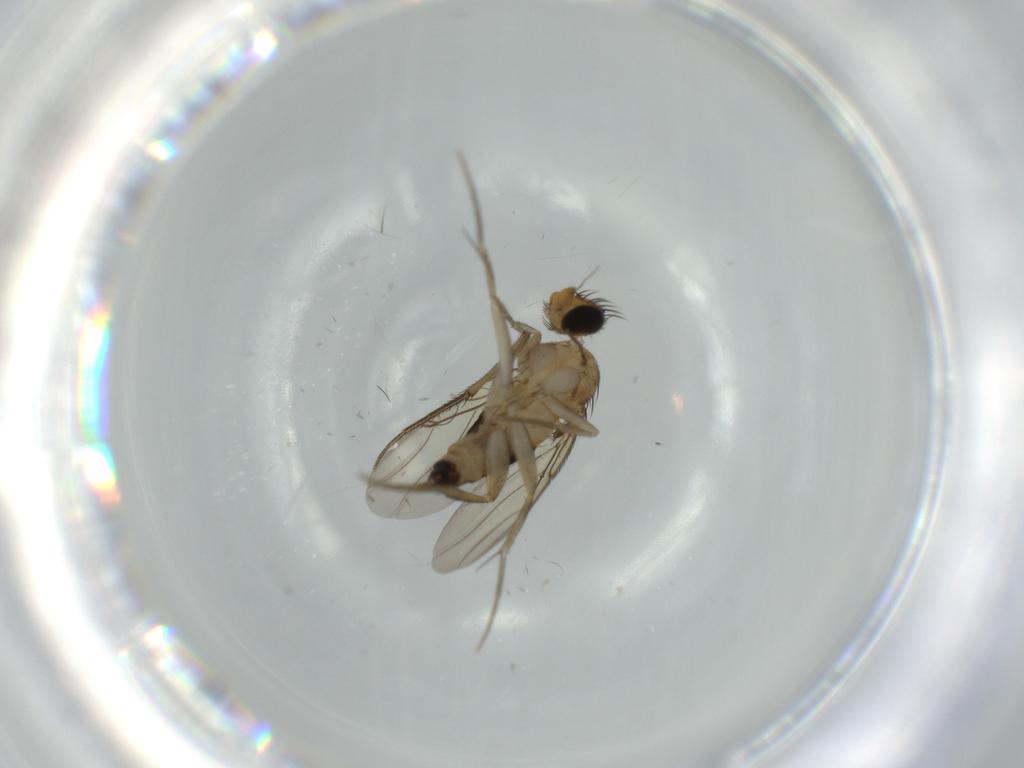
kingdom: Animalia
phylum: Arthropoda
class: Insecta
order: Diptera
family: Phoridae
